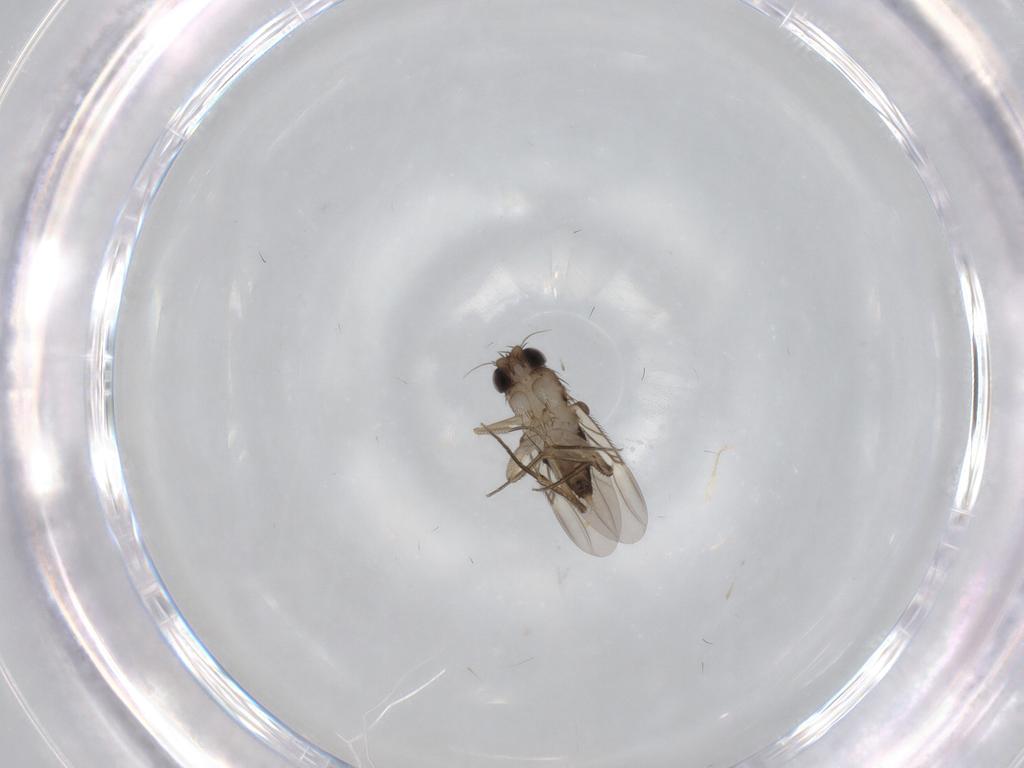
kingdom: Animalia
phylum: Arthropoda
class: Insecta
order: Diptera
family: Phoridae
